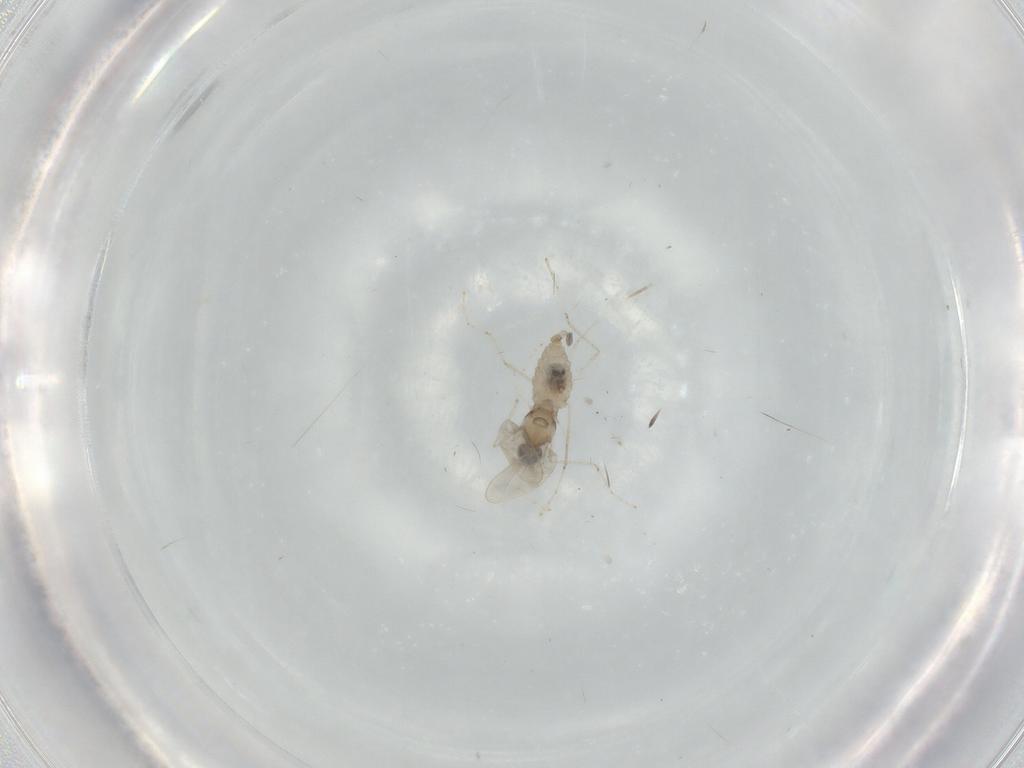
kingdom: Animalia
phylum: Arthropoda
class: Insecta
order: Diptera
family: Cecidomyiidae
